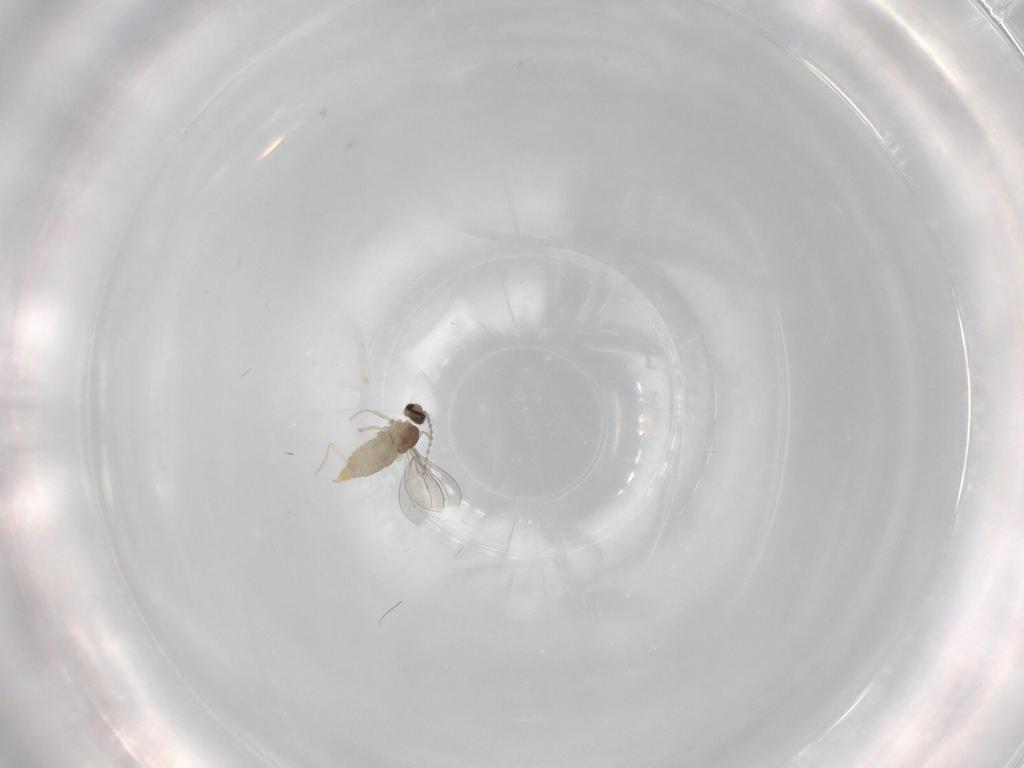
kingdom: Animalia
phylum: Arthropoda
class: Insecta
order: Diptera
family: Cecidomyiidae
